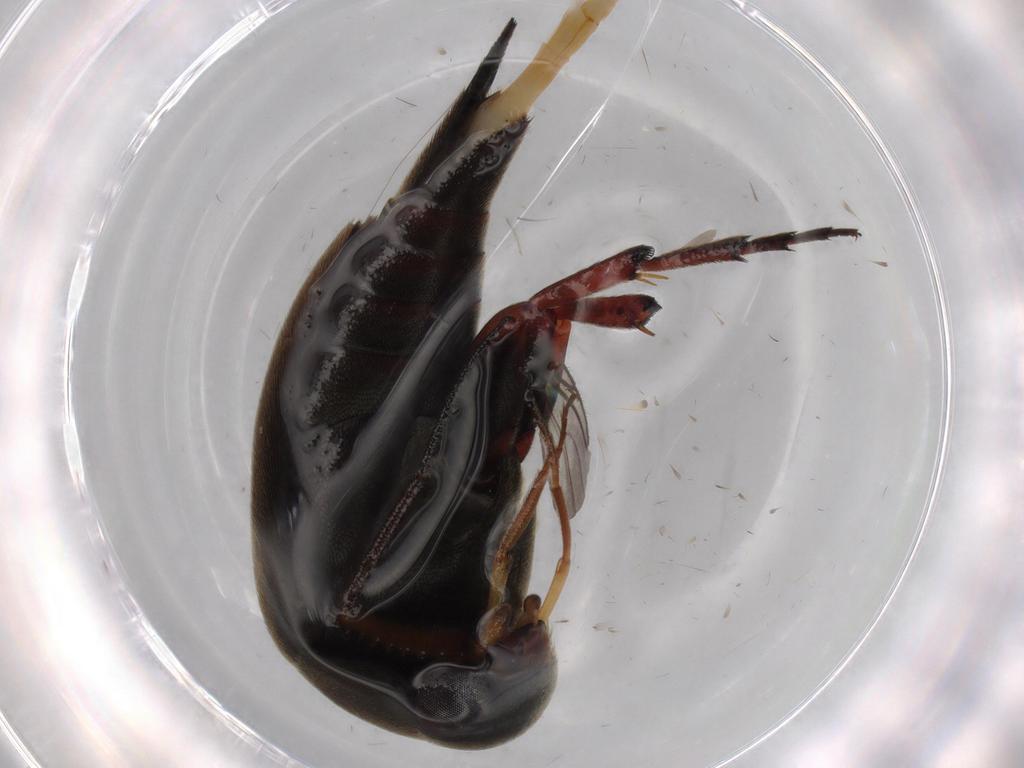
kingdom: Animalia
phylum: Arthropoda
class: Insecta
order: Coleoptera
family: Mordellidae
